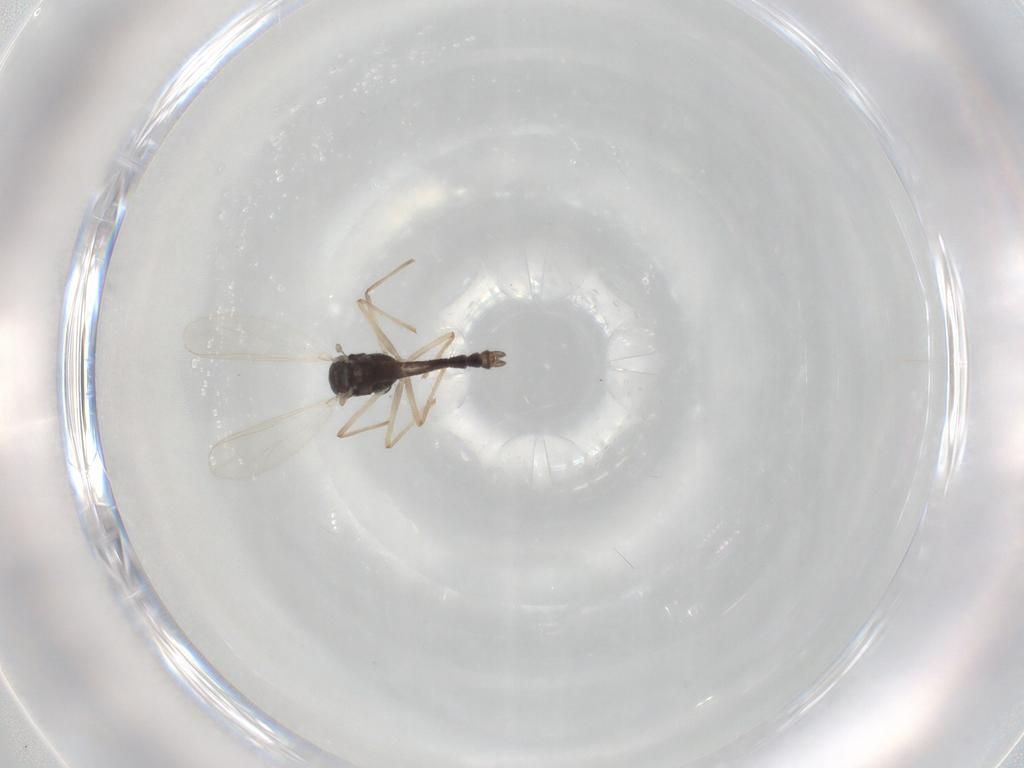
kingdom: Animalia
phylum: Arthropoda
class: Insecta
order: Diptera
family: Chironomidae
